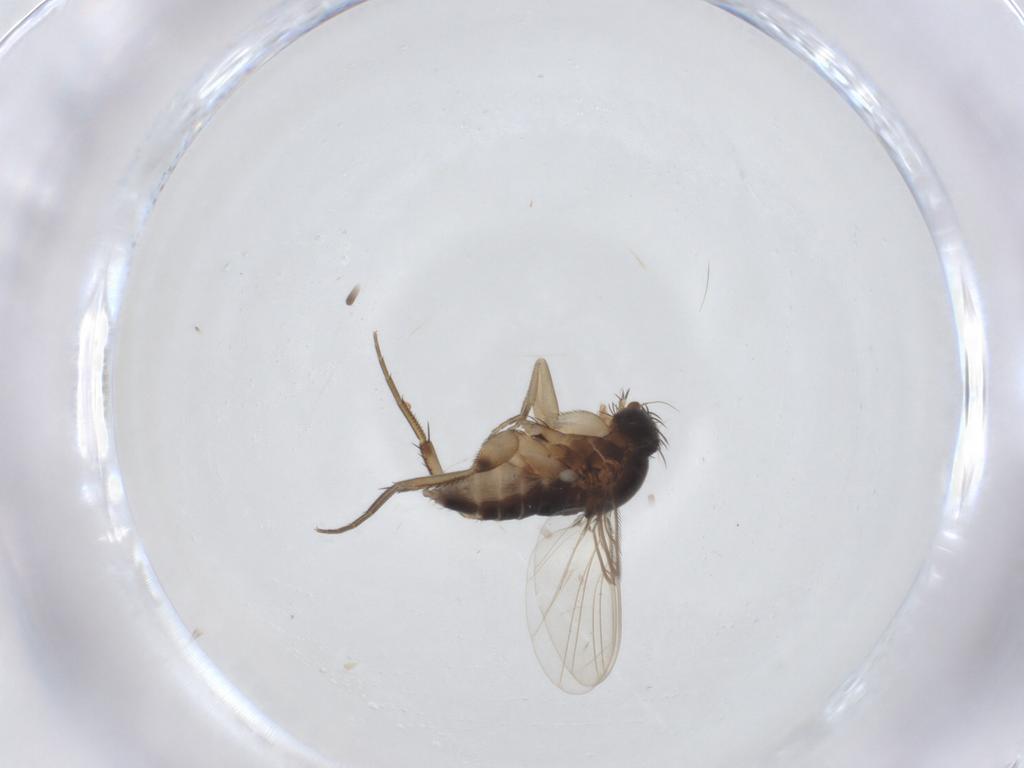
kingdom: Animalia
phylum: Arthropoda
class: Insecta
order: Diptera
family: Phoridae
